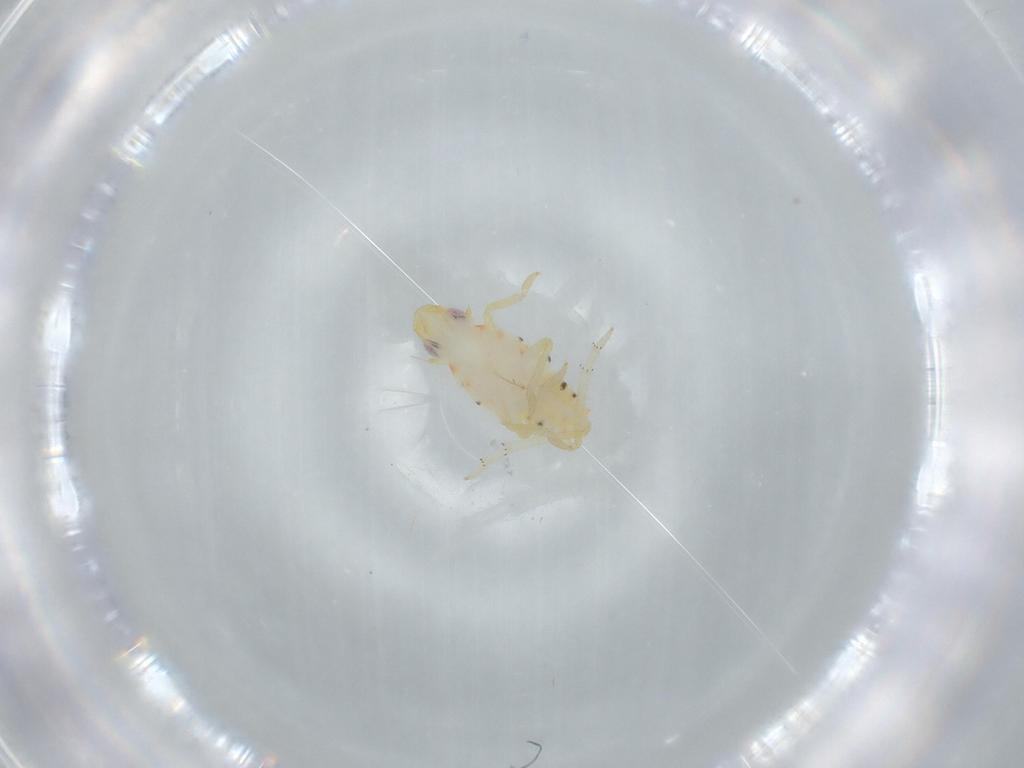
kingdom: Animalia
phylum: Arthropoda
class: Insecta
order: Hemiptera
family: Tropiduchidae
